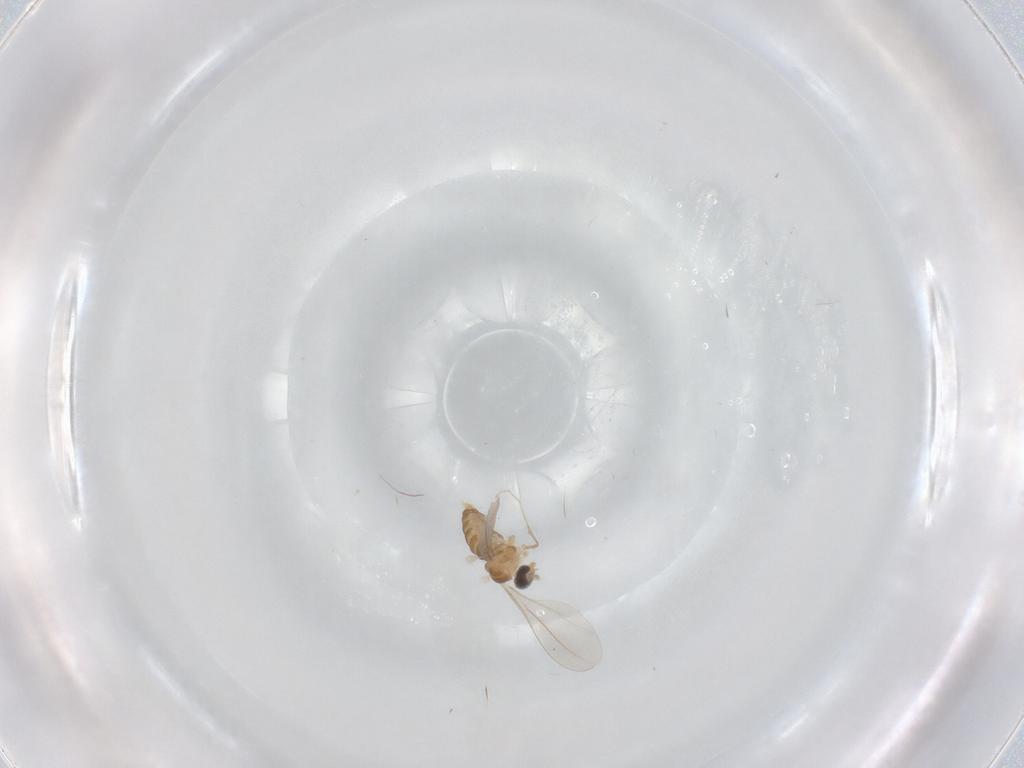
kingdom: Animalia
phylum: Arthropoda
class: Insecta
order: Diptera
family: Cecidomyiidae
